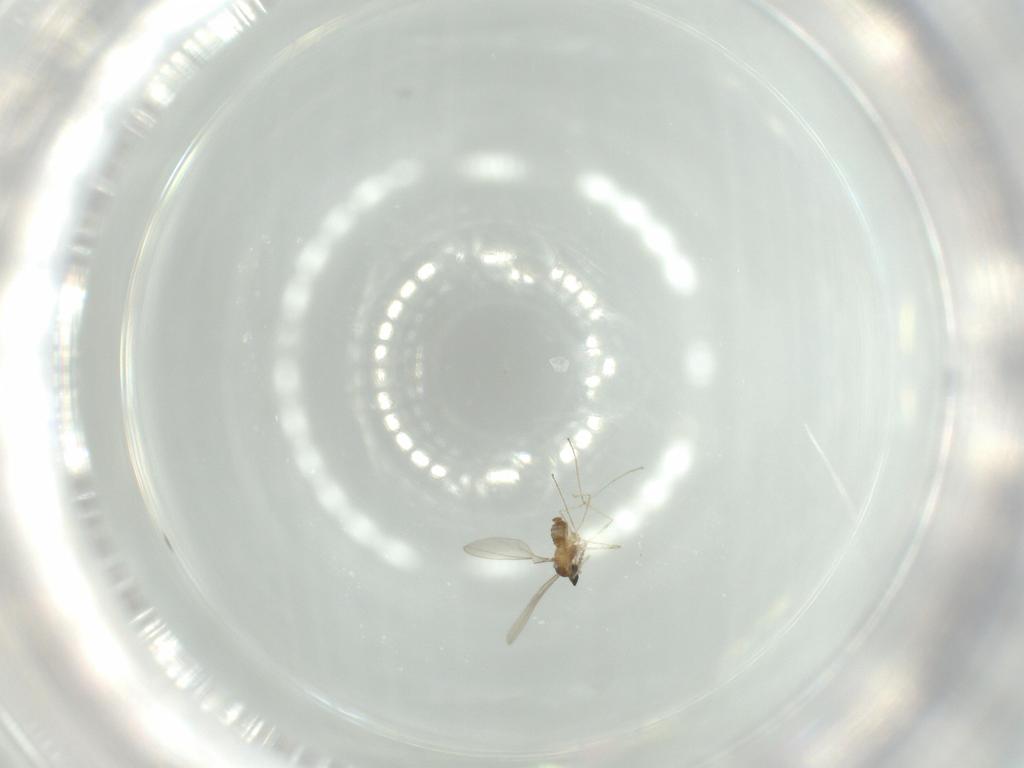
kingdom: Animalia
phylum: Arthropoda
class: Insecta
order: Diptera
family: Cecidomyiidae
